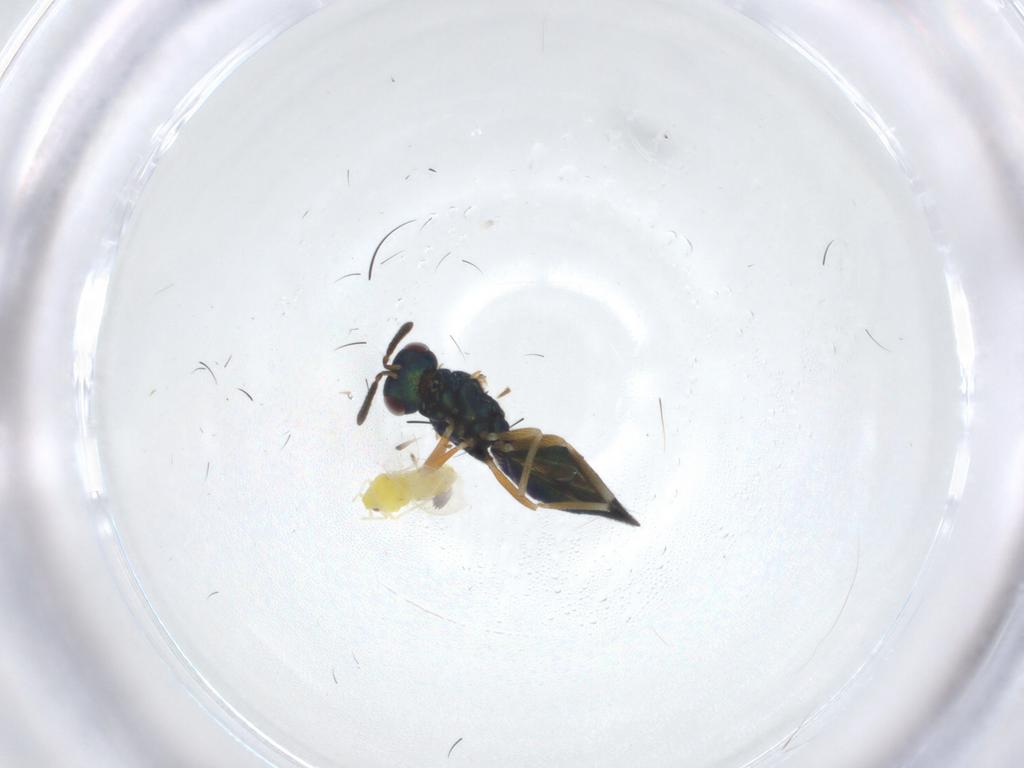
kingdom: Animalia
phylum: Arthropoda
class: Insecta
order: Hymenoptera
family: Pteromalidae
